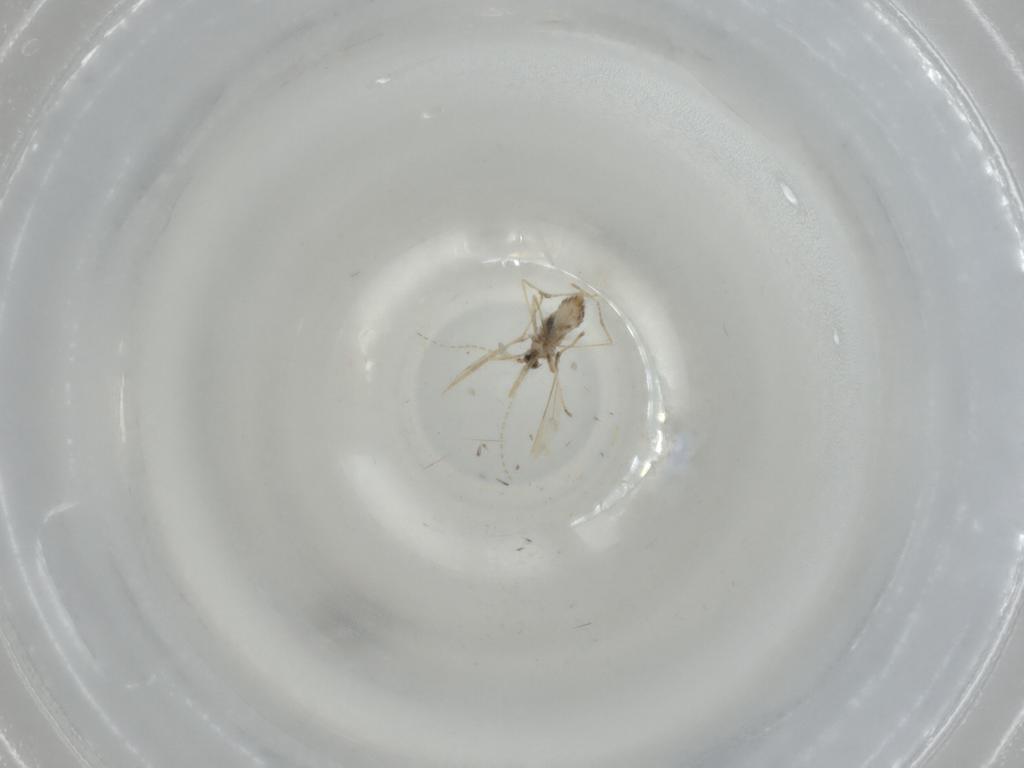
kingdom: Animalia
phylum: Arthropoda
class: Insecta
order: Diptera
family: Cecidomyiidae
